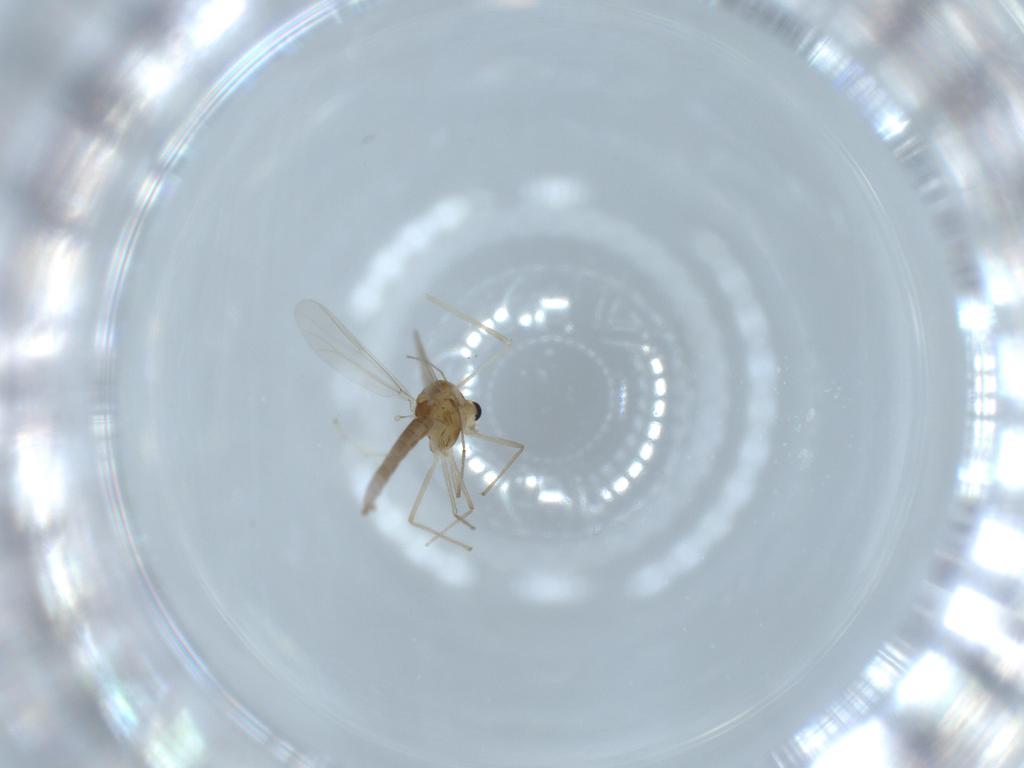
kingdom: Animalia
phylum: Arthropoda
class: Insecta
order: Diptera
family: Chironomidae
